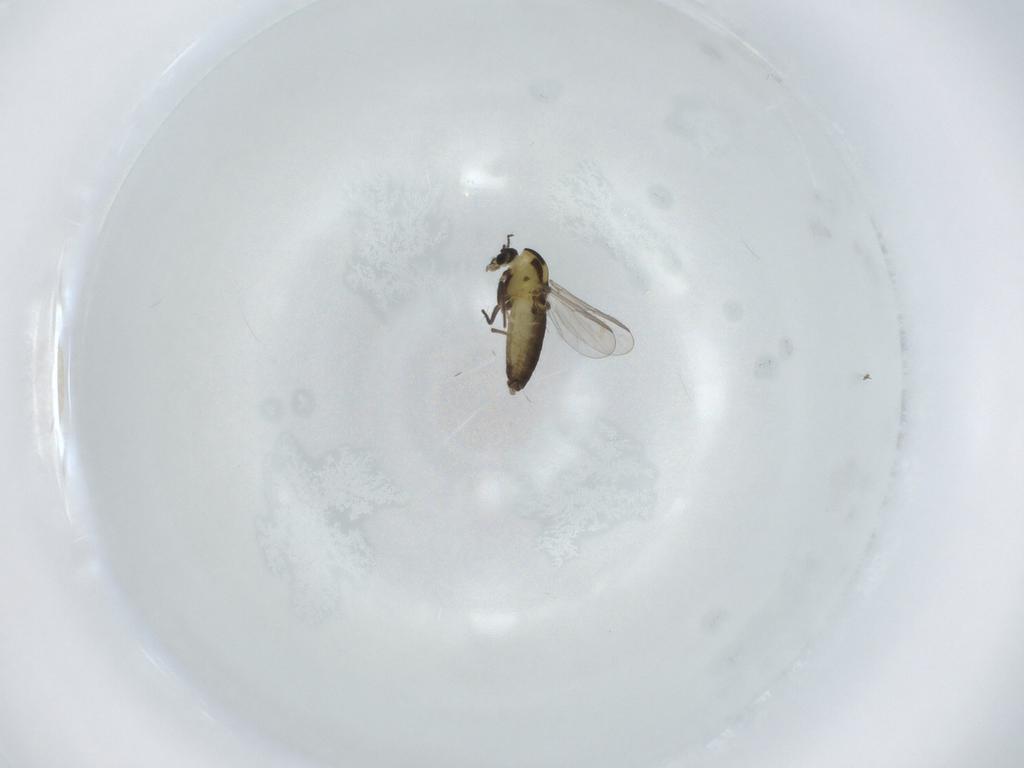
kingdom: Animalia
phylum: Arthropoda
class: Insecta
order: Diptera
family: Chironomidae
